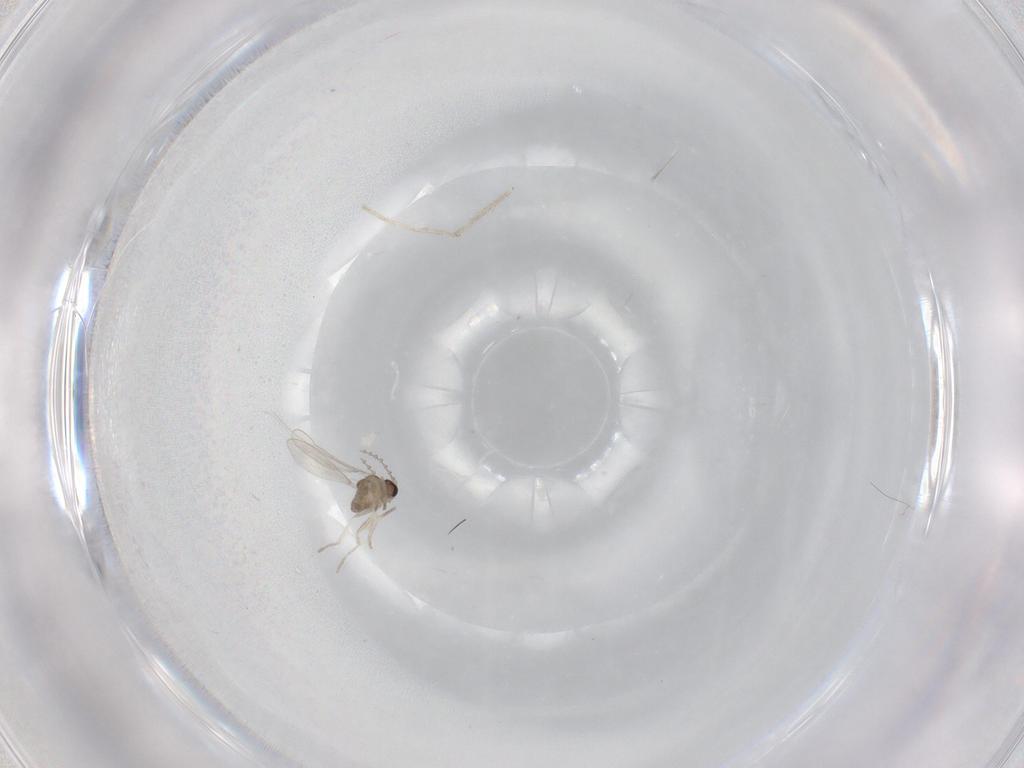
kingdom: Animalia
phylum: Arthropoda
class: Insecta
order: Diptera
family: Cecidomyiidae
